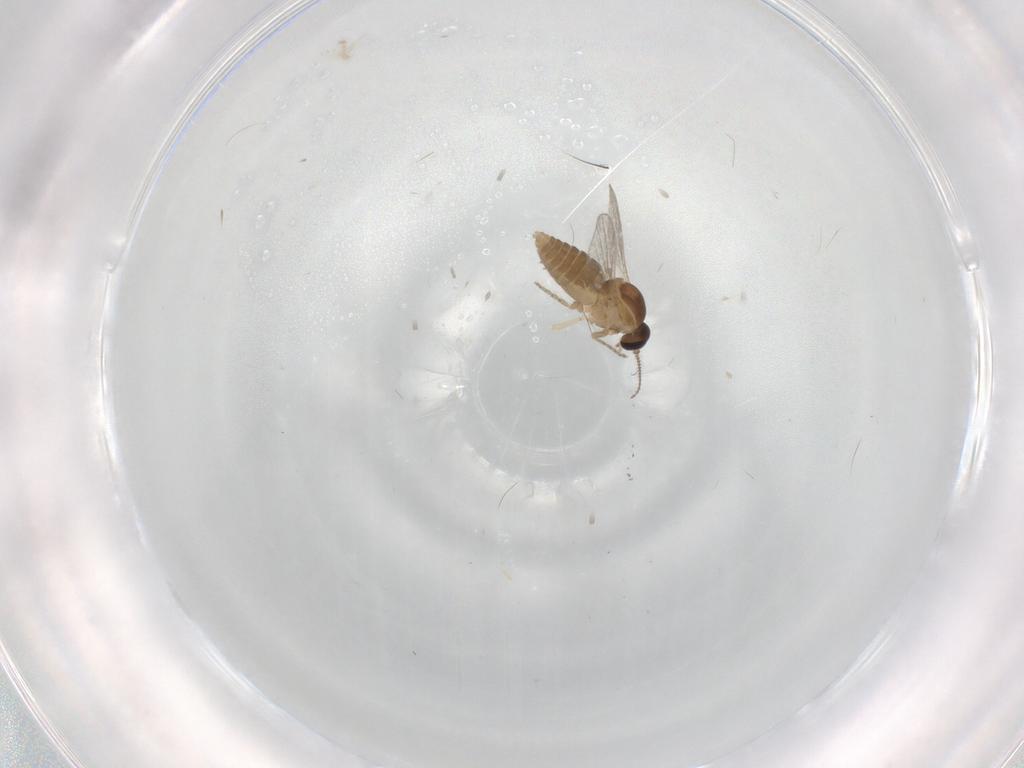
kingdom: Animalia
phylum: Arthropoda
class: Insecta
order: Diptera
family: Ceratopogonidae
